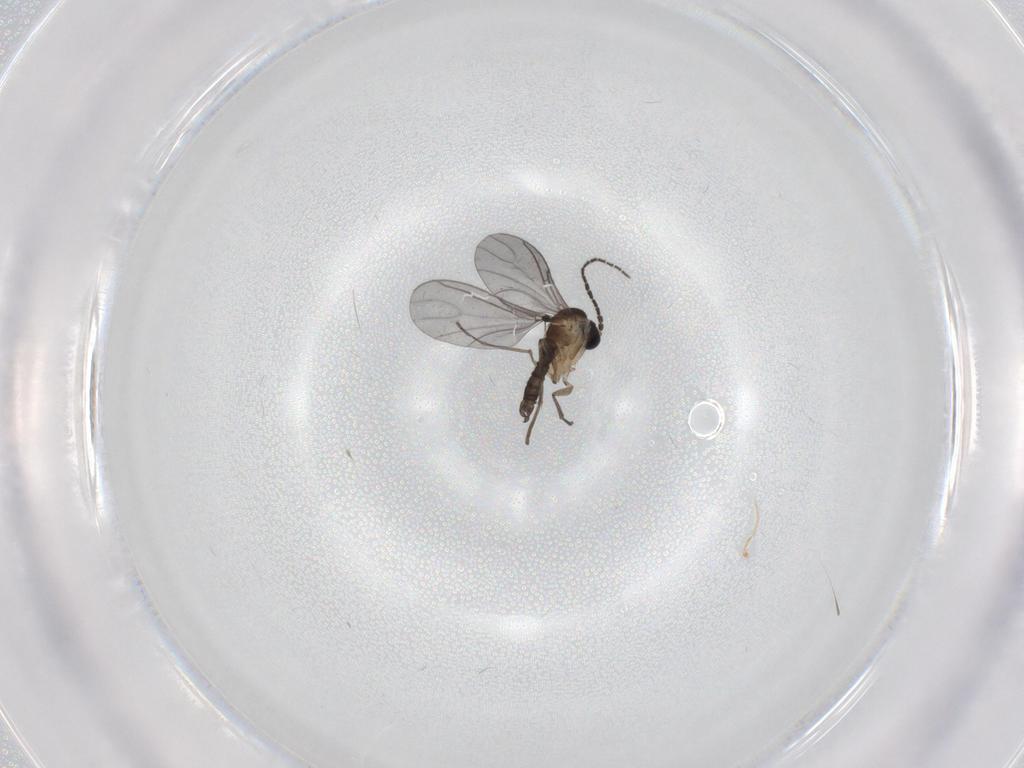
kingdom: Animalia
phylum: Arthropoda
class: Insecta
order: Diptera
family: Sciaridae
